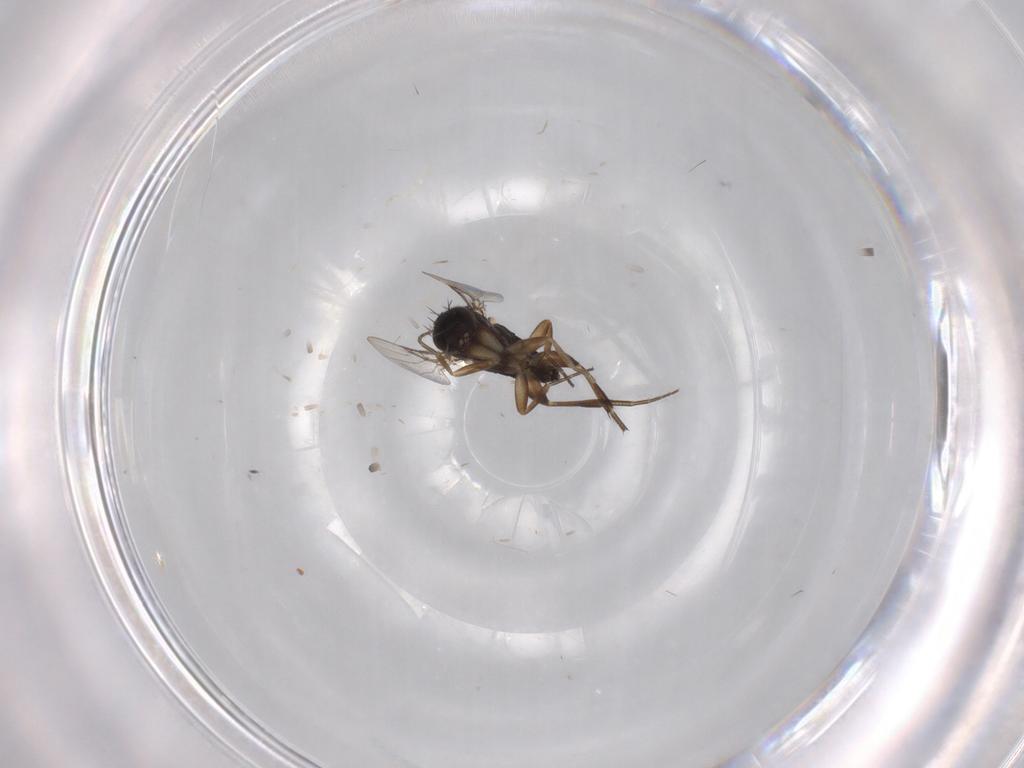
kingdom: Animalia
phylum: Arthropoda
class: Insecta
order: Diptera
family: Phoridae
